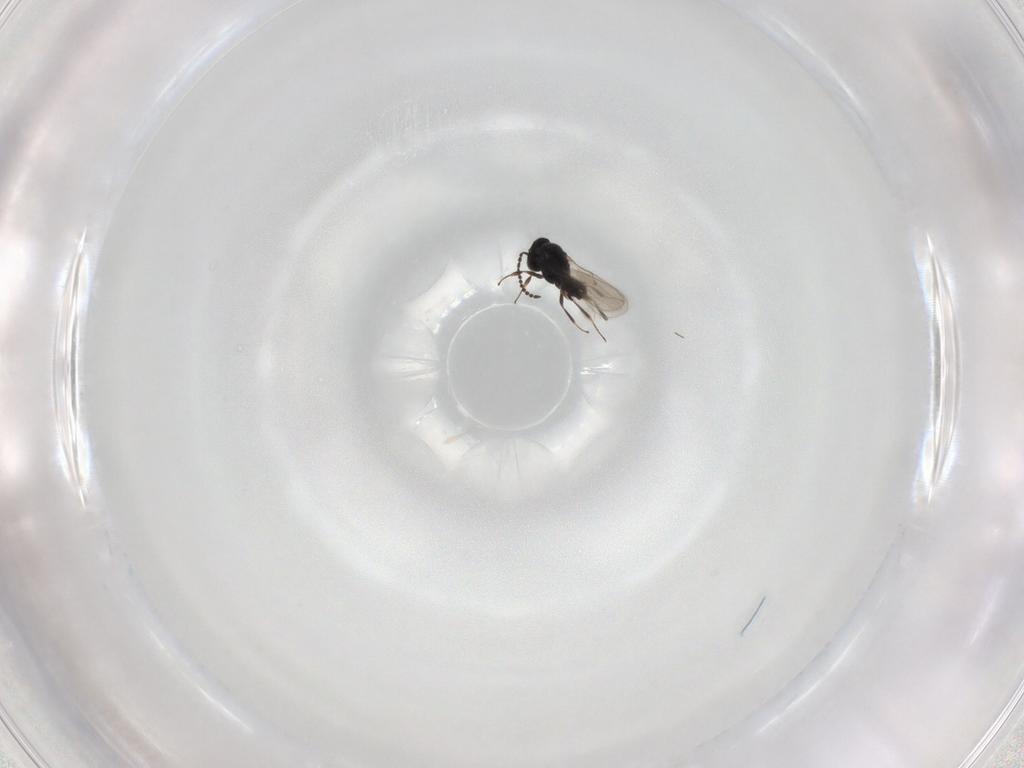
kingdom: Animalia
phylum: Arthropoda
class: Insecta
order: Hymenoptera
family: Scelionidae
